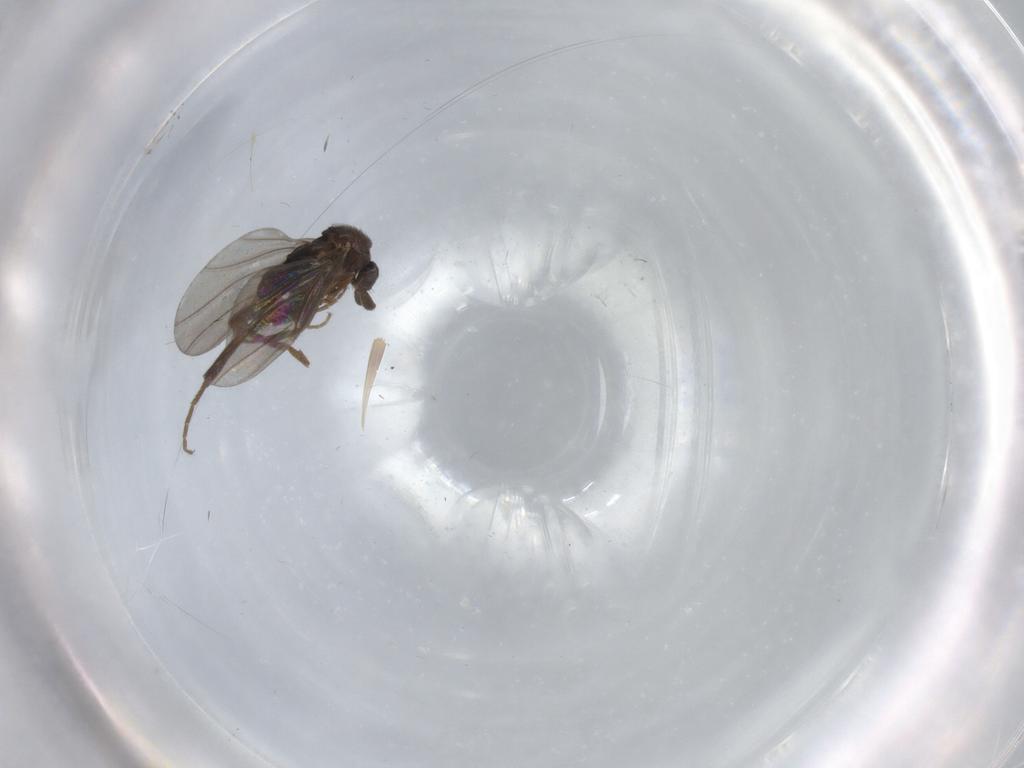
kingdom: Animalia
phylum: Arthropoda
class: Insecta
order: Diptera
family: Phoridae
